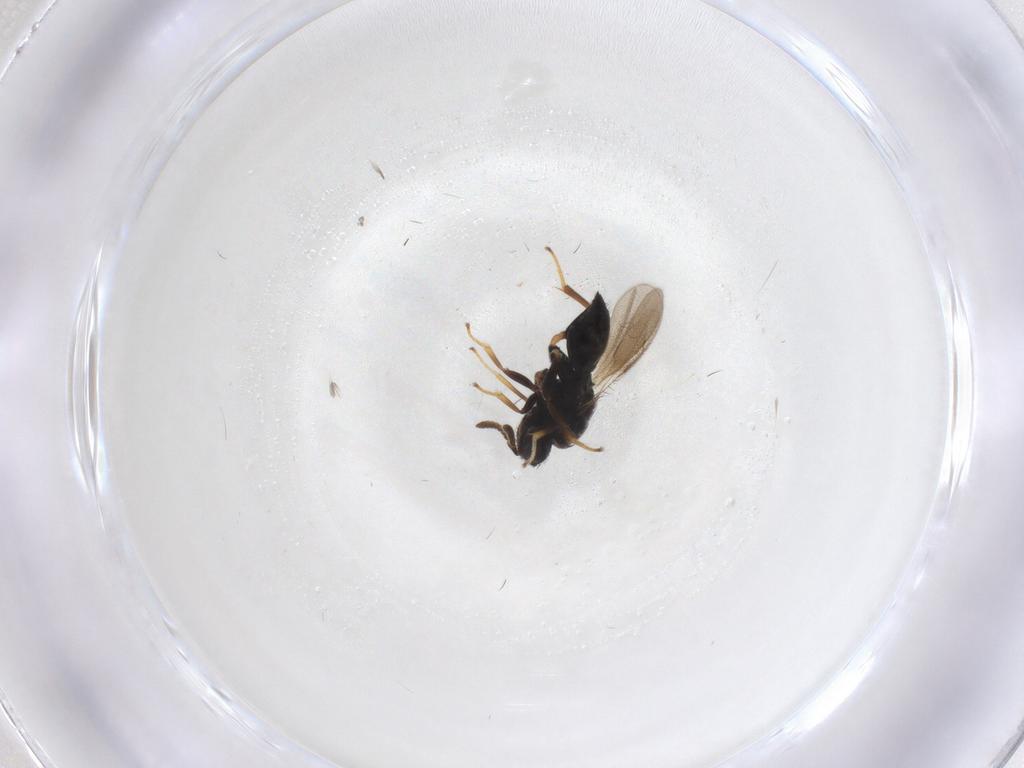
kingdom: Animalia
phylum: Arthropoda
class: Insecta
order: Hymenoptera
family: Pteromalidae
